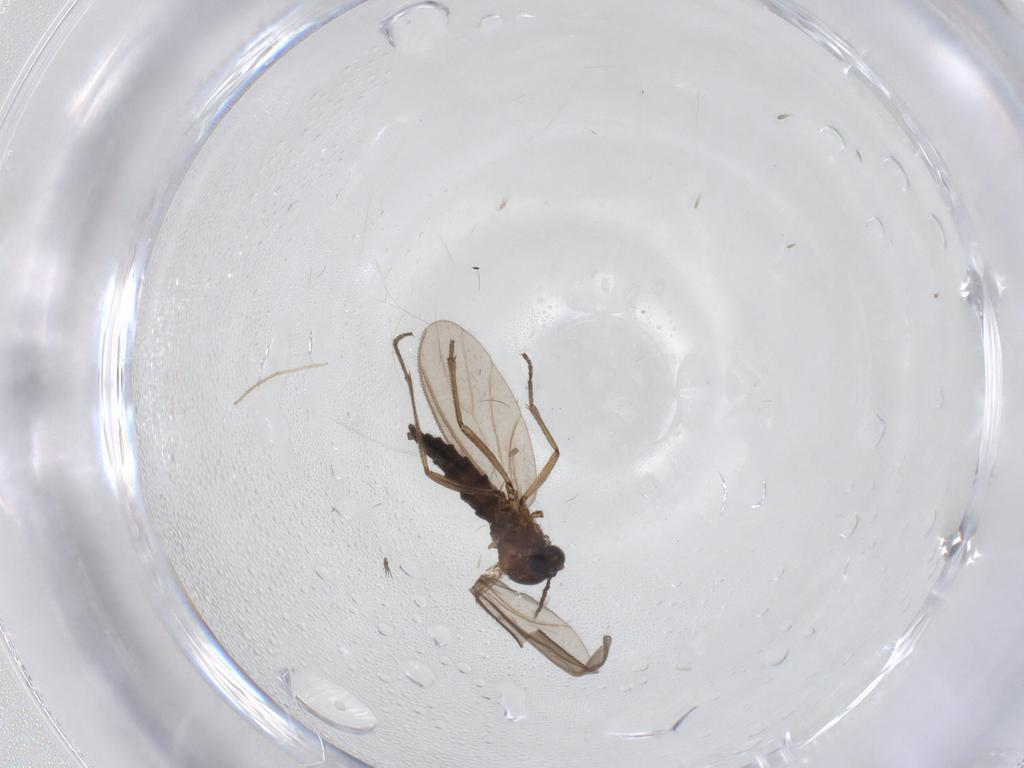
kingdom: Animalia
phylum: Arthropoda
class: Insecta
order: Diptera
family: Sciaridae
